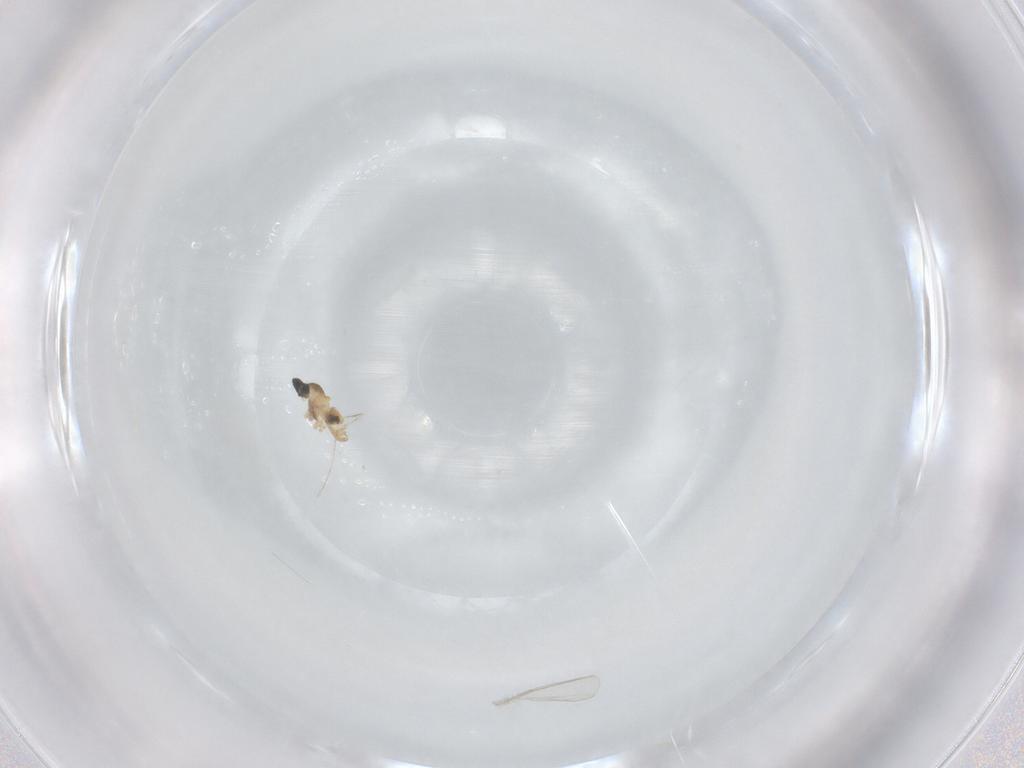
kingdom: Animalia
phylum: Arthropoda
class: Insecta
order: Diptera
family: Cecidomyiidae
